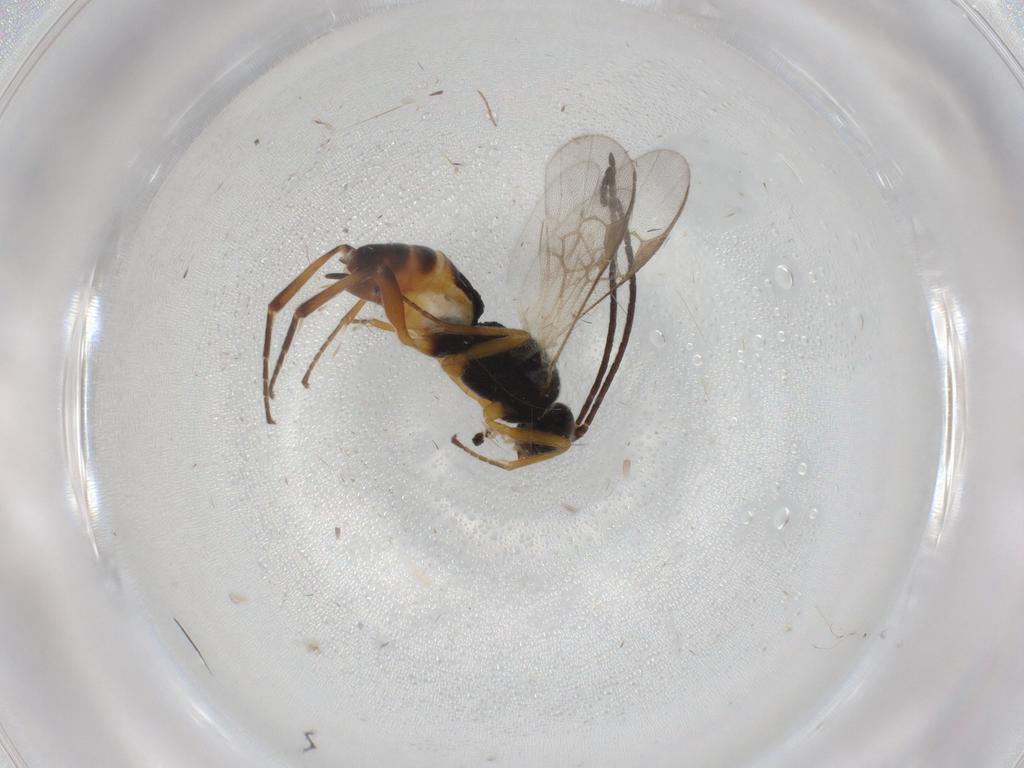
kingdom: Animalia
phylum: Arthropoda
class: Insecta
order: Hymenoptera
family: Braconidae
